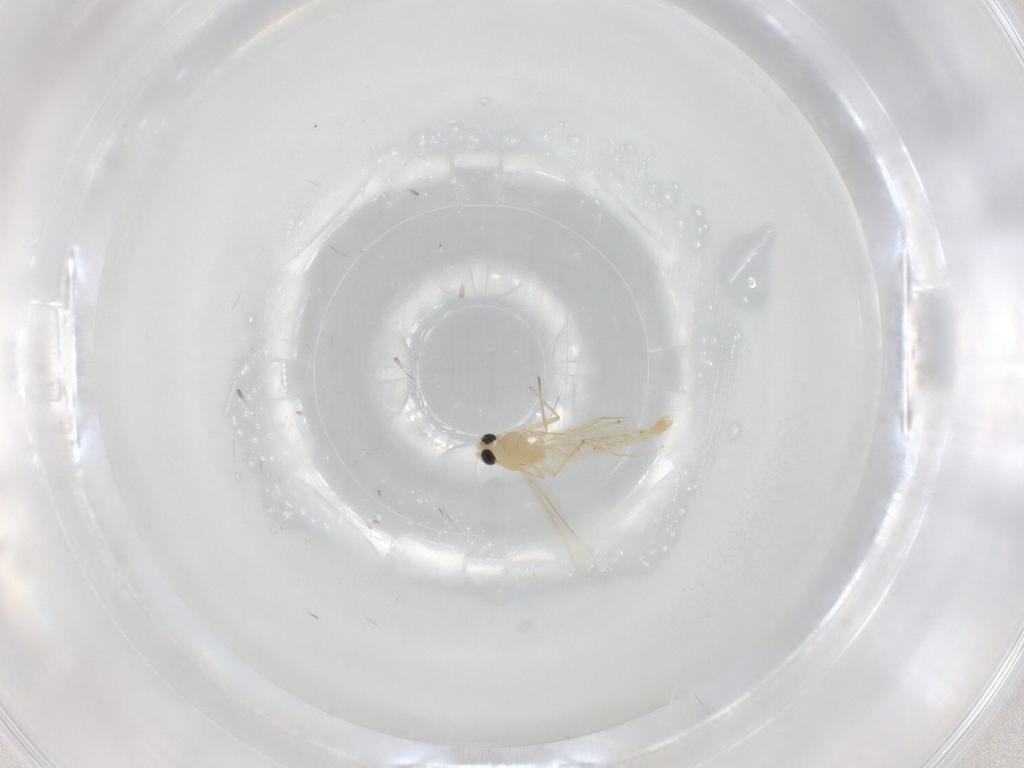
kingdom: Animalia
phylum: Arthropoda
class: Insecta
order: Diptera
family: Chironomidae
